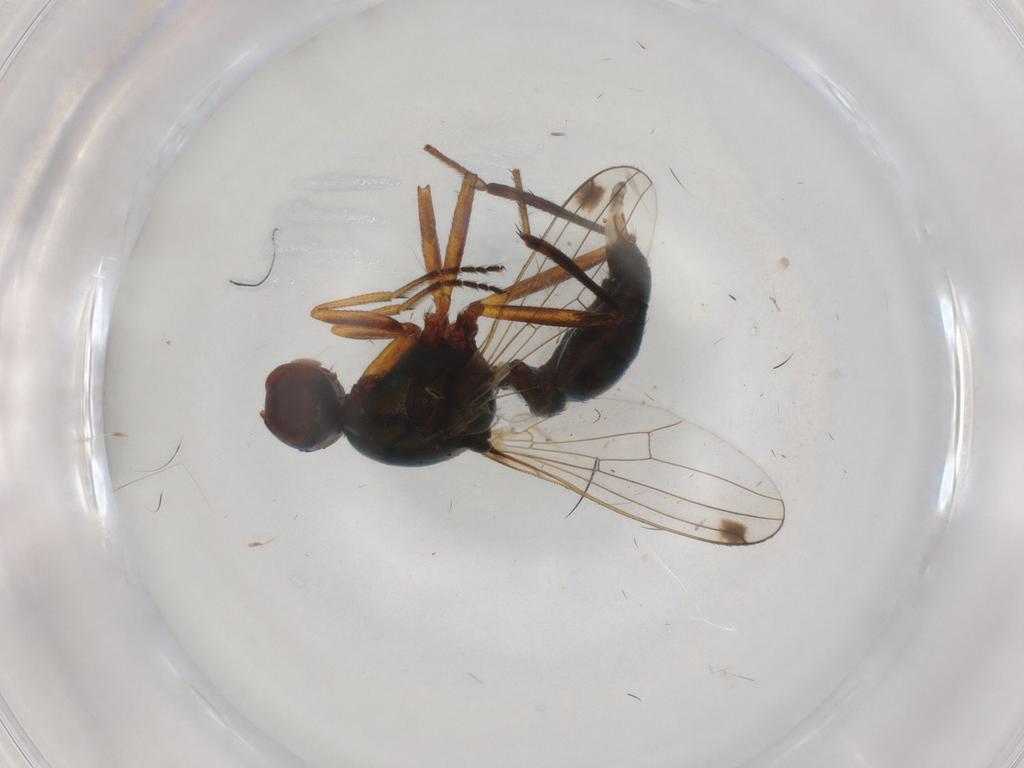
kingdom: Animalia
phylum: Arthropoda
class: Insecta
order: Diptera
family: Sepsidae
